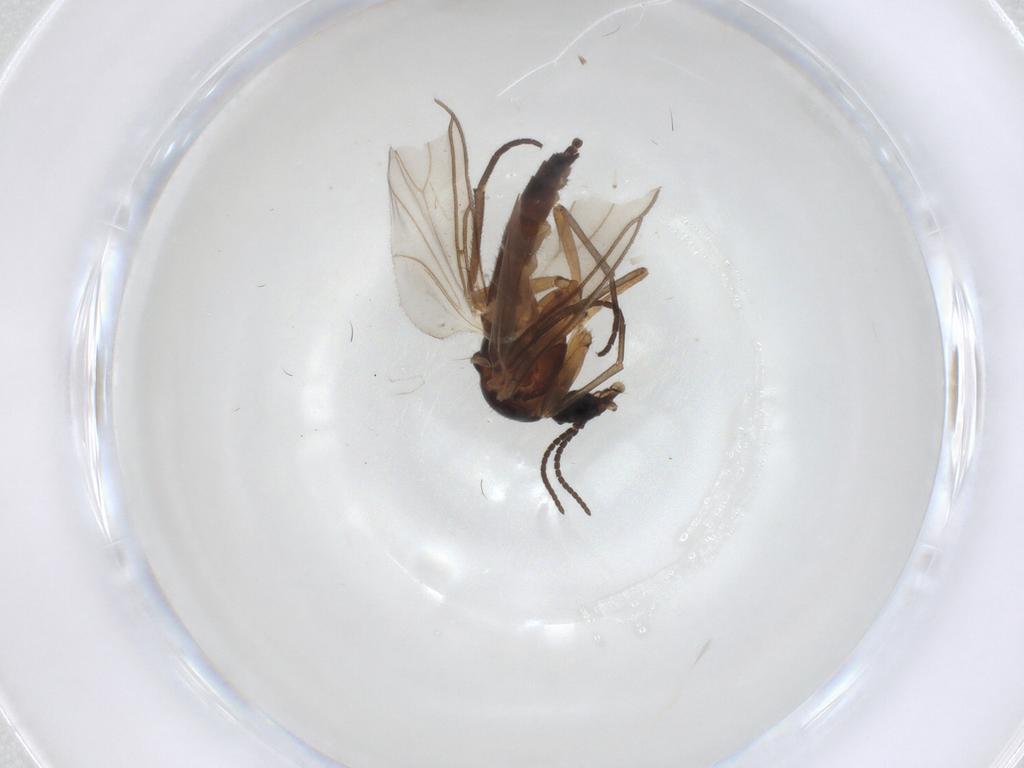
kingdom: Animalia
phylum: Arthropoda
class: Insecta
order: Diptera
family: Sciaridae
